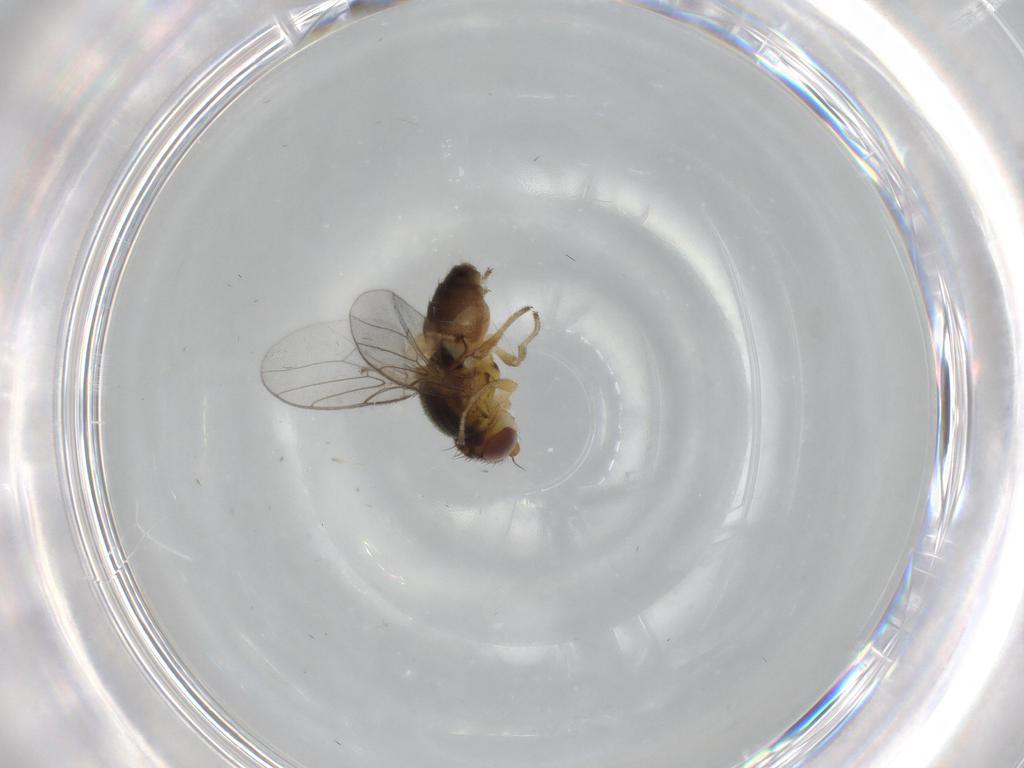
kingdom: Animalia
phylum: Arthropoda
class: Insecta
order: Diptera
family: Chloropidae
